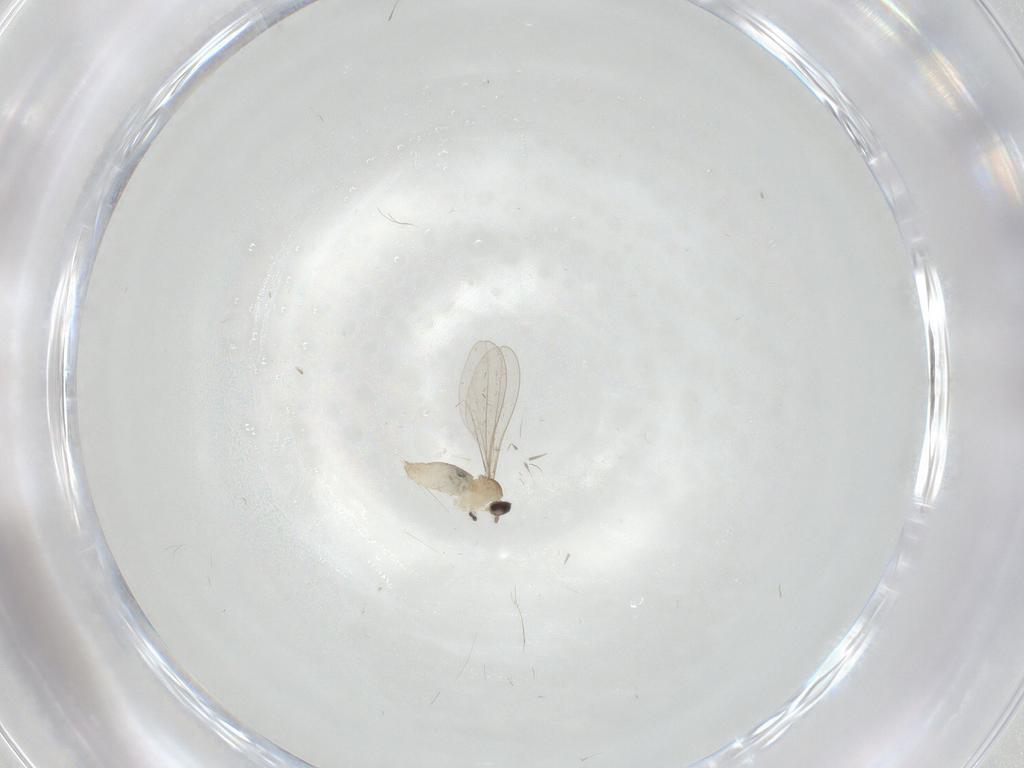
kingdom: Animalia
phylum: Arthropoda
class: Insecta
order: Diptera
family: Cecidomyiidae
